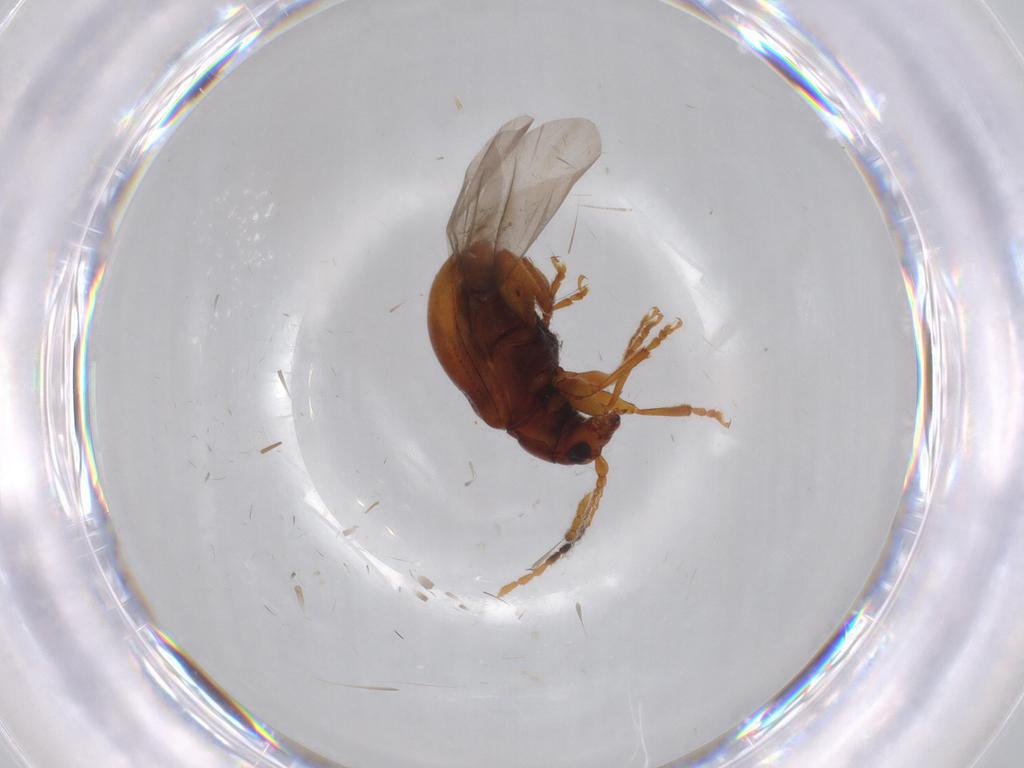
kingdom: Animalia
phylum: Arthropoda
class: Insecta
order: Coleoptera
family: Chrysomelidae
